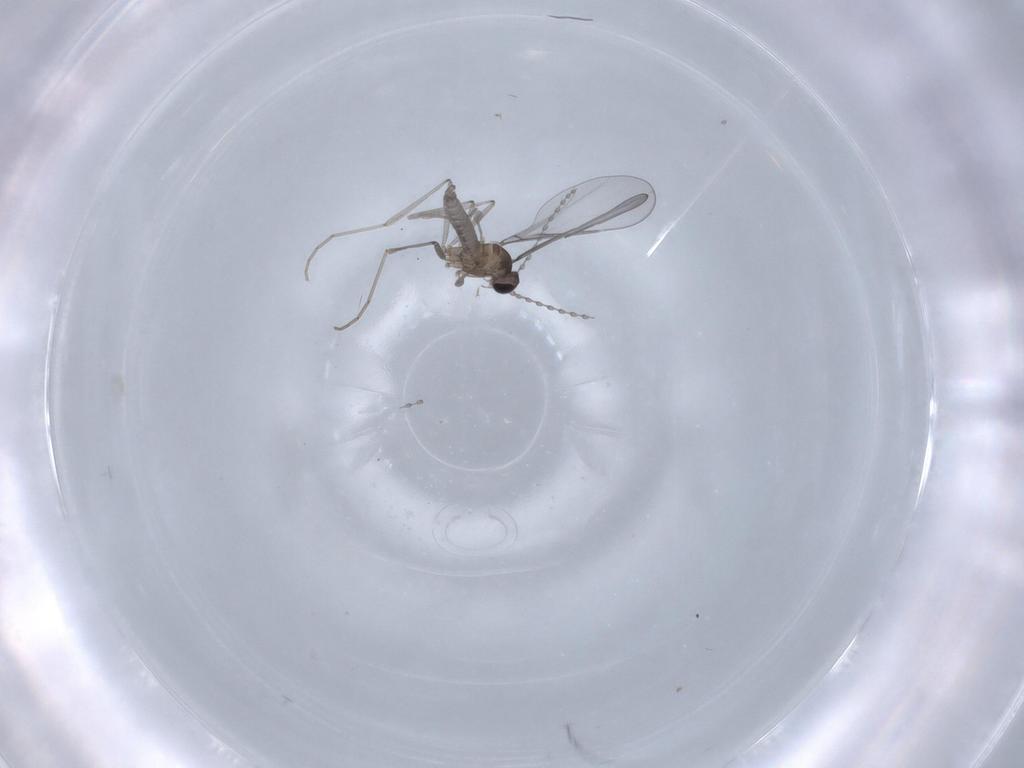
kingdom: Animalia
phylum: Arthropoda
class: Insecta
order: Diptera
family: Cecidomyiidae
